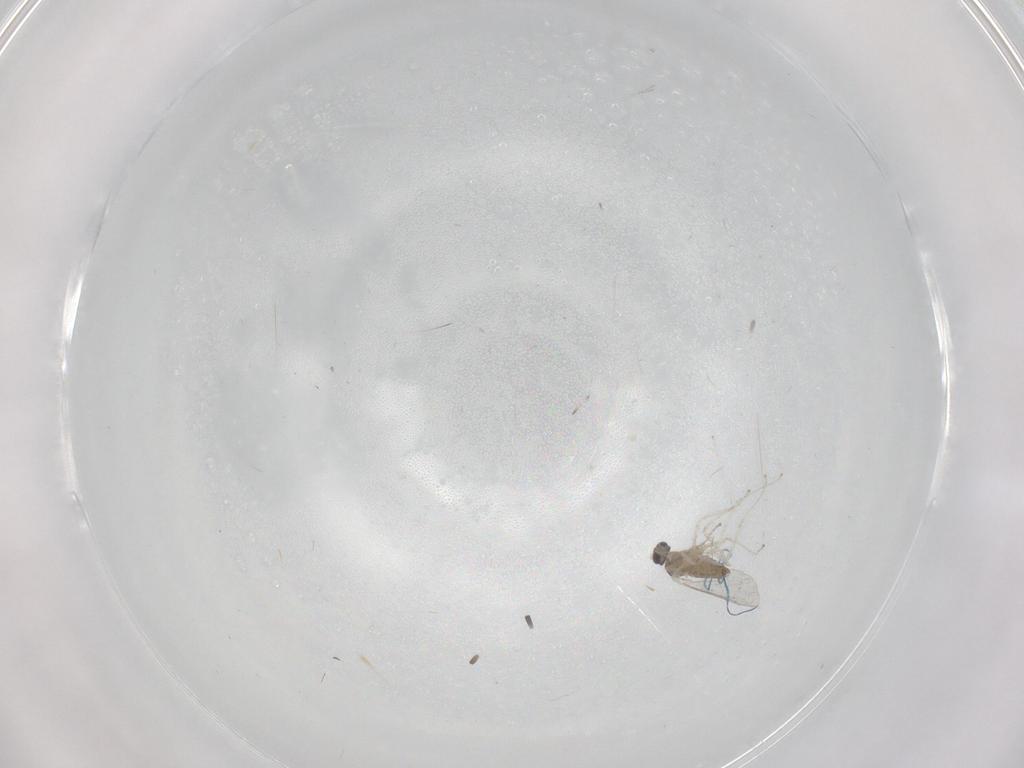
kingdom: Animalia
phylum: Arthropoda
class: Insecta
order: Diptera
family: Cecidomyiidae
